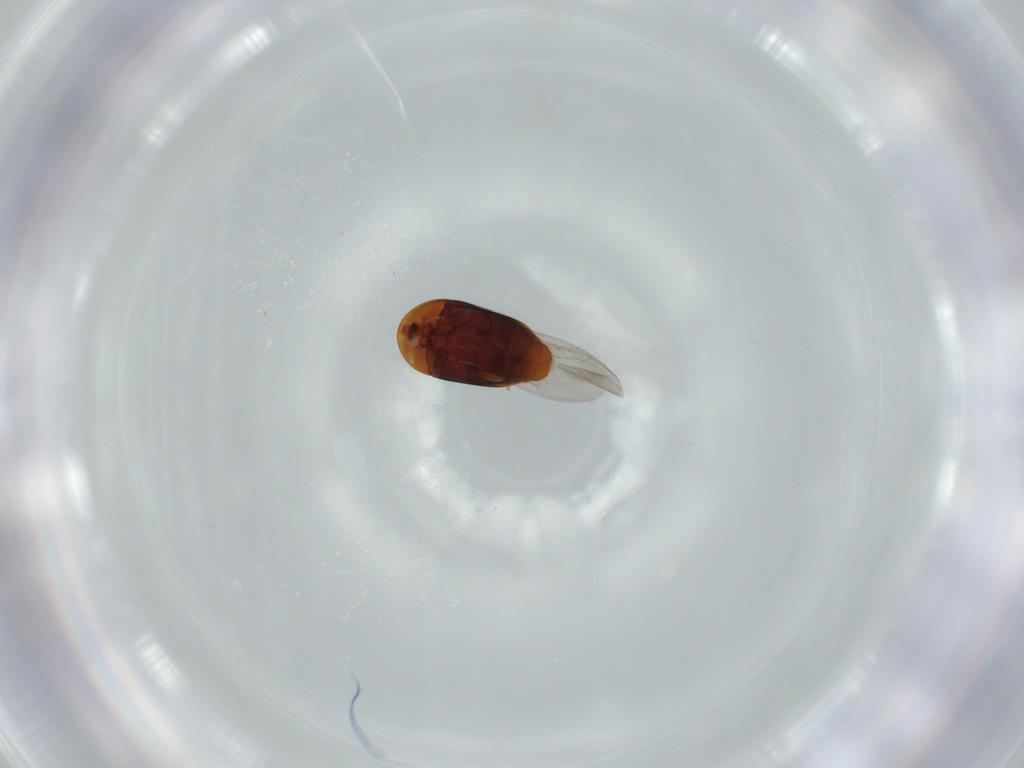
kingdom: Animalia
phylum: Arthropoda
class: Insecta
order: Coleoptera
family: Corylophidae
